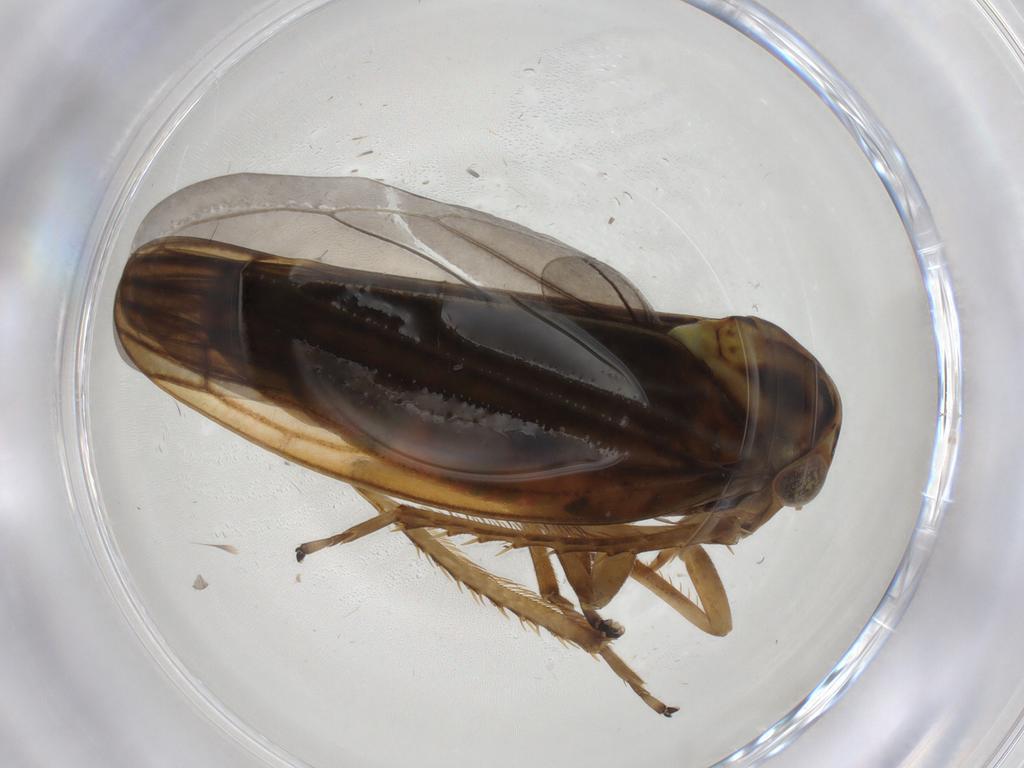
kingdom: Animalia
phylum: Arthropoda
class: Insecta
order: Hemiptera
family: Cicadellidae
